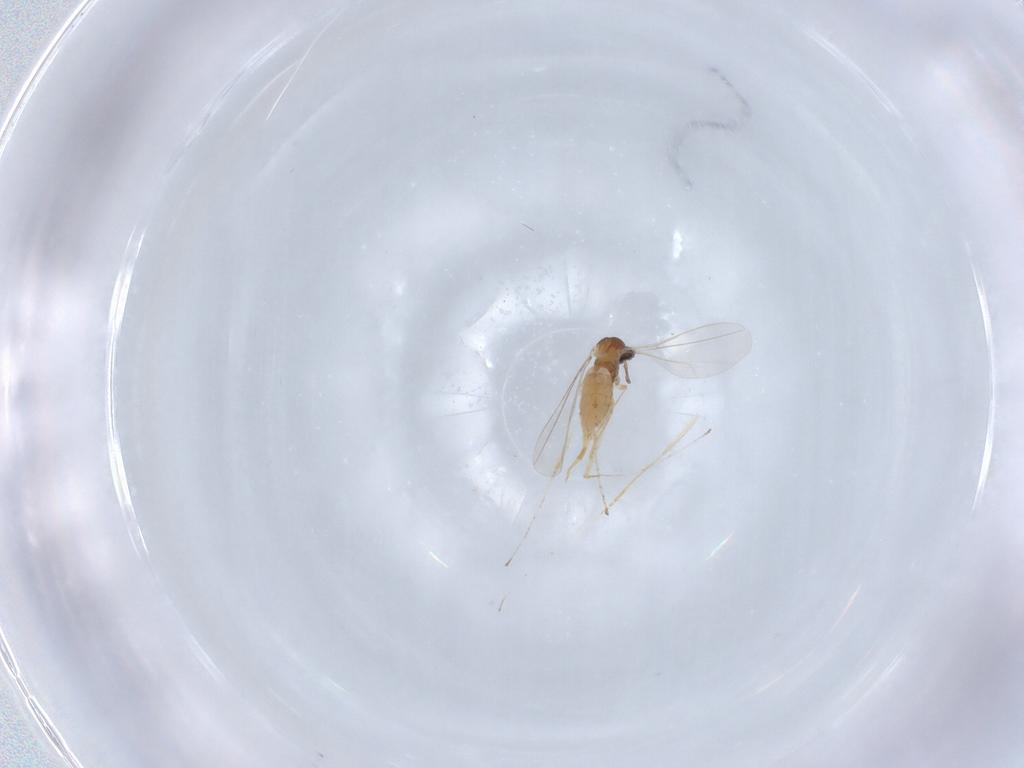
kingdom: Animalia
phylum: Arthropoda
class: Insecta
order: Diptera
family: Cecidomyiidae
